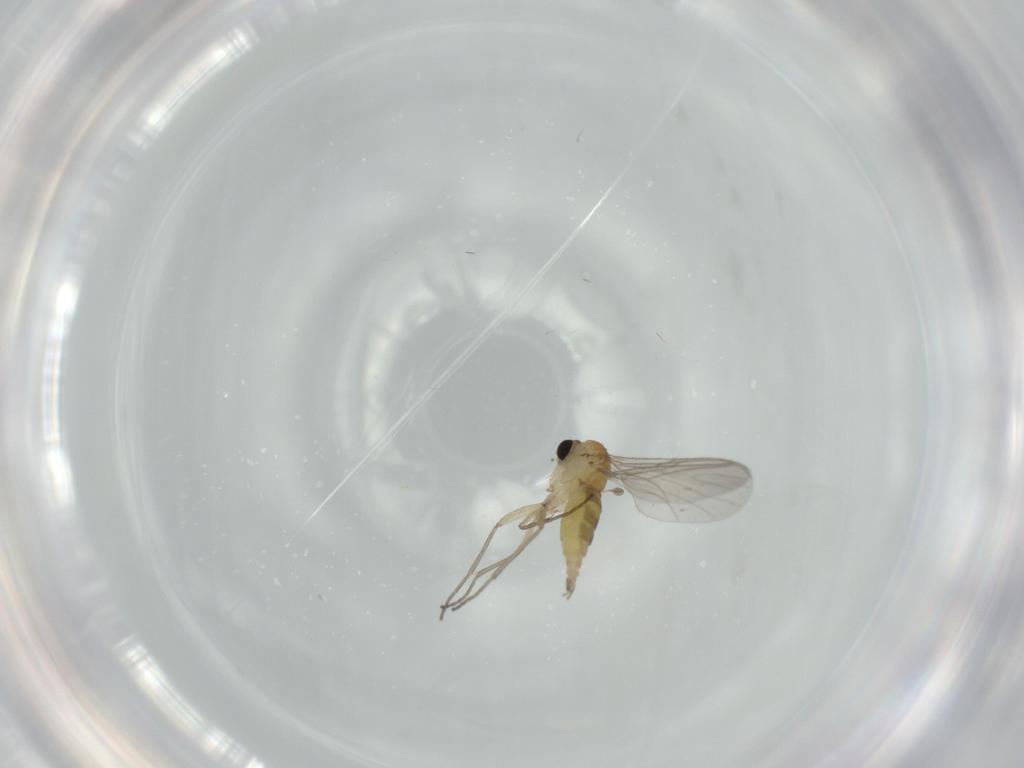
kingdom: Animalia
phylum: Arthropoda
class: Insecta
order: Diptera
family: Sciaridae
